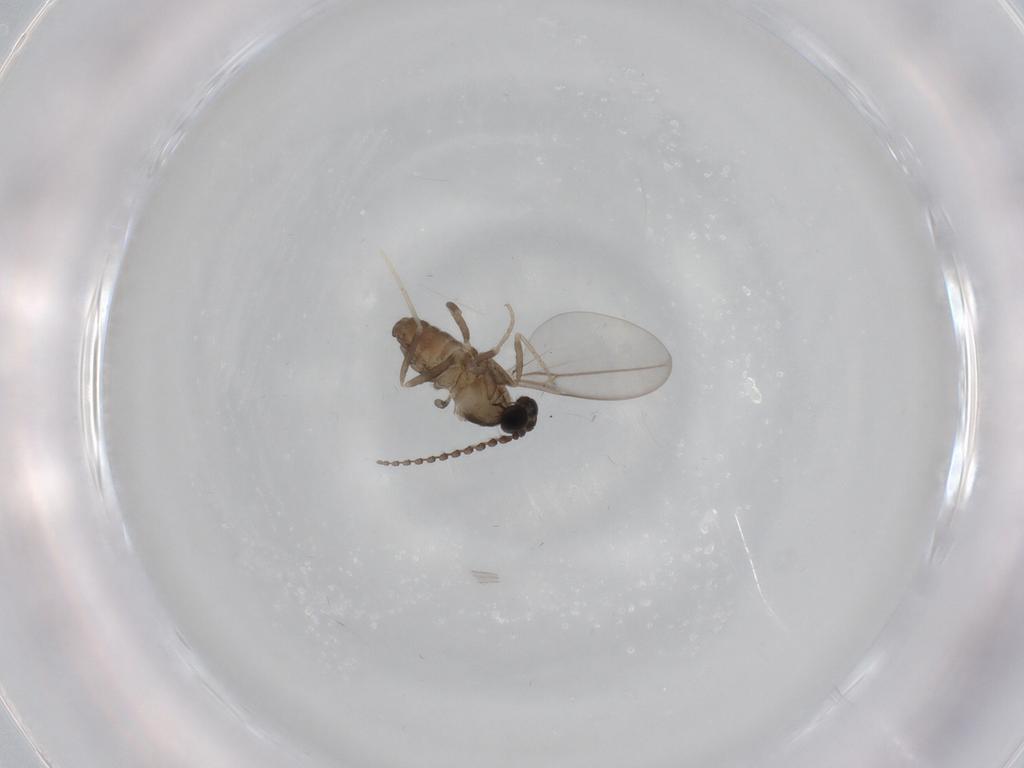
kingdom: Animalia
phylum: Arthropoda
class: Insecta
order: Diptera
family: Cecidomyiidae
